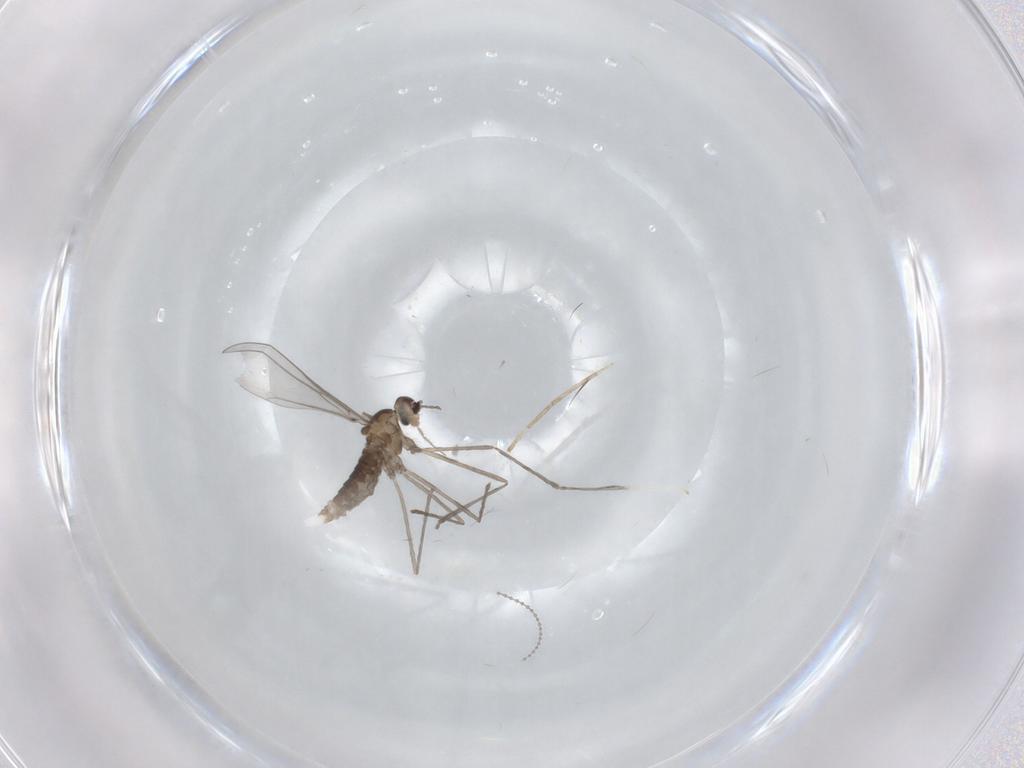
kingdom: Animalia
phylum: Arthropoda
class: Insecta
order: Diptera
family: Cecidomyiidae
